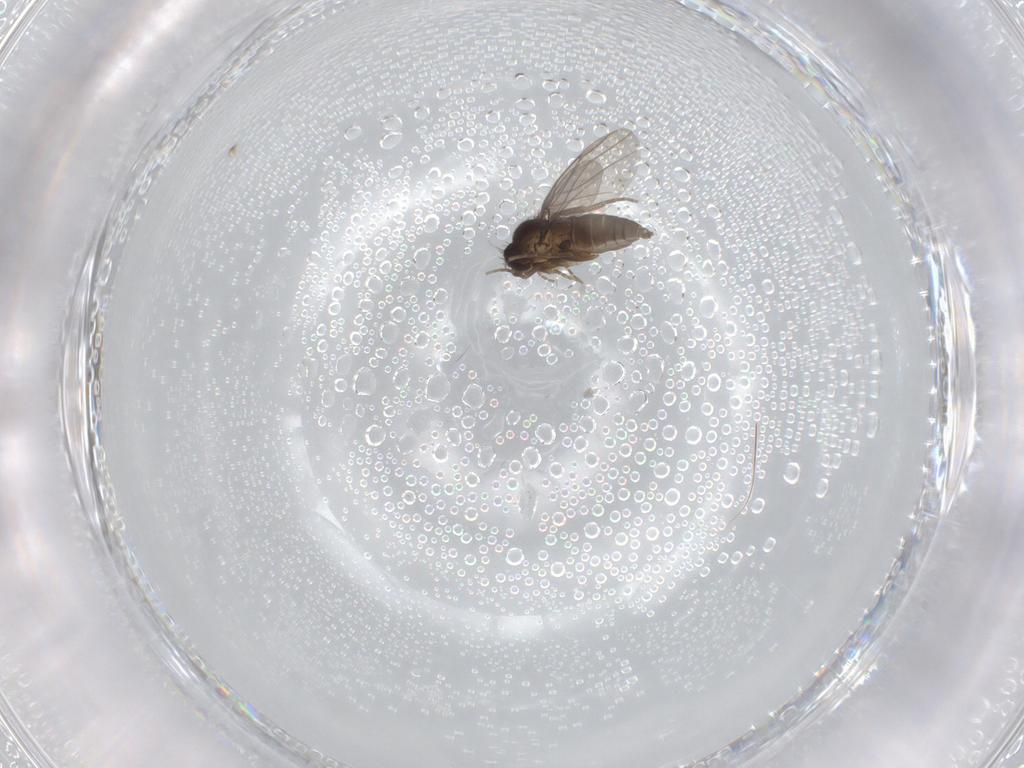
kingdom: Animalia
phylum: Arthropoda
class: Insecta
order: Diptera
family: Phoridae
